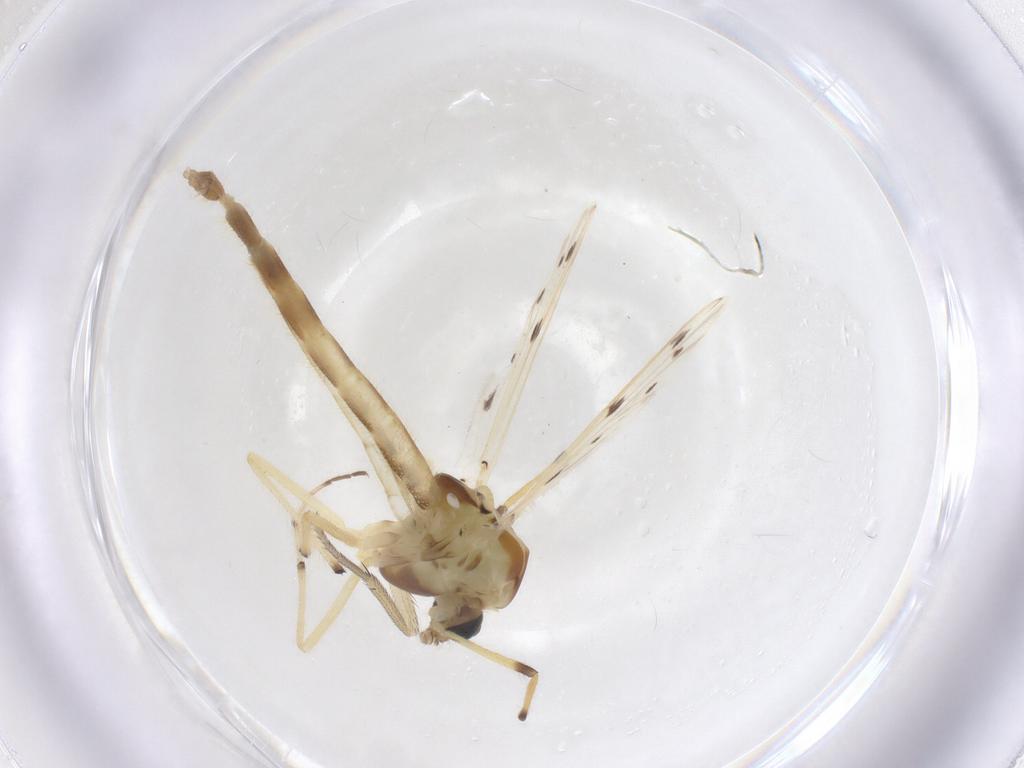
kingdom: Animalia
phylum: Arthropoda
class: Insecta
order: Diptera
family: Chironomidae
